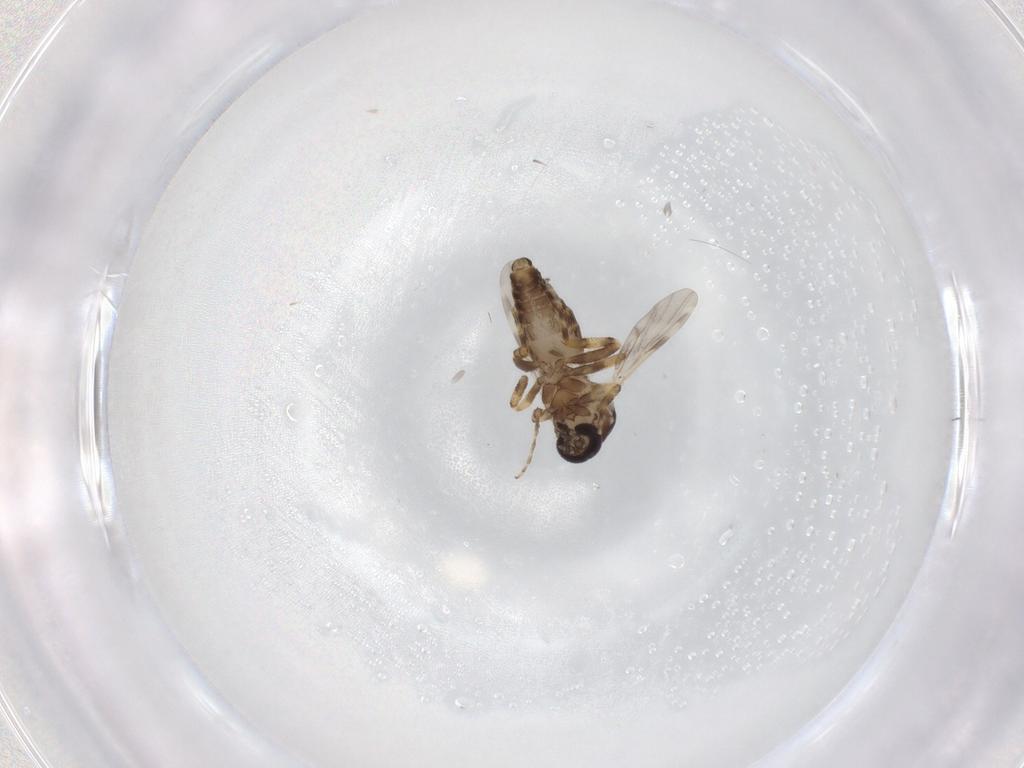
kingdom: Animalia
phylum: Arthropoda
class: Insecta
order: Diptera
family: Ceratopogonidae
